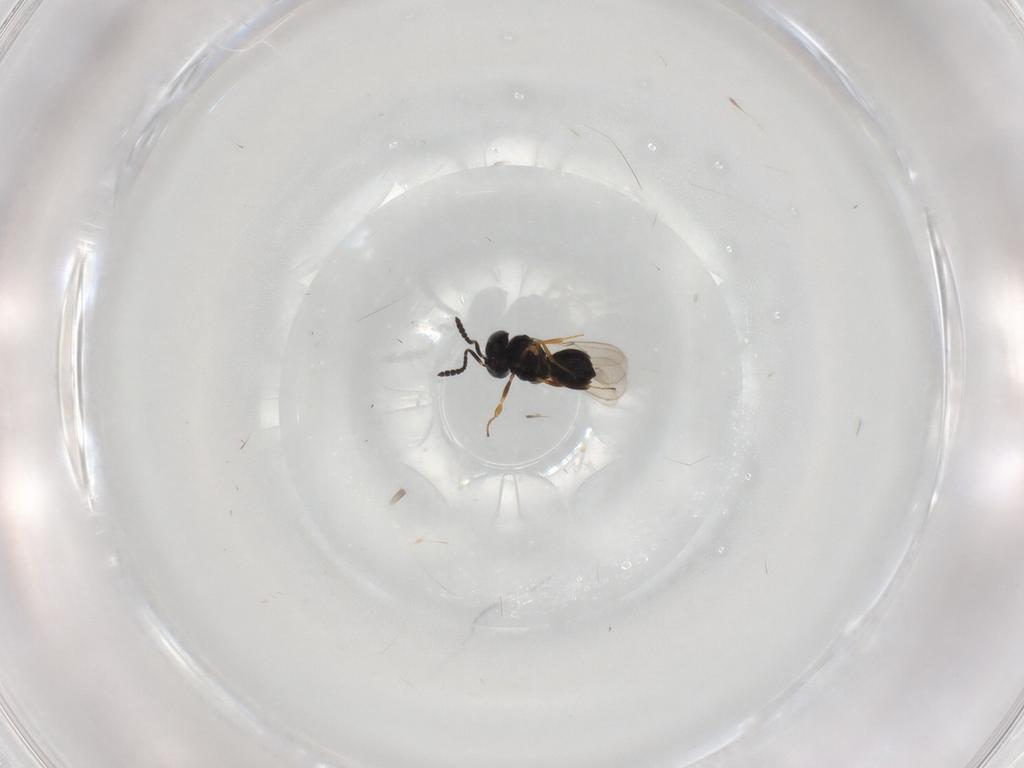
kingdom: Animalia
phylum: Arthropoda
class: Insecta
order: Hymenoptera
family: Scelionidae
